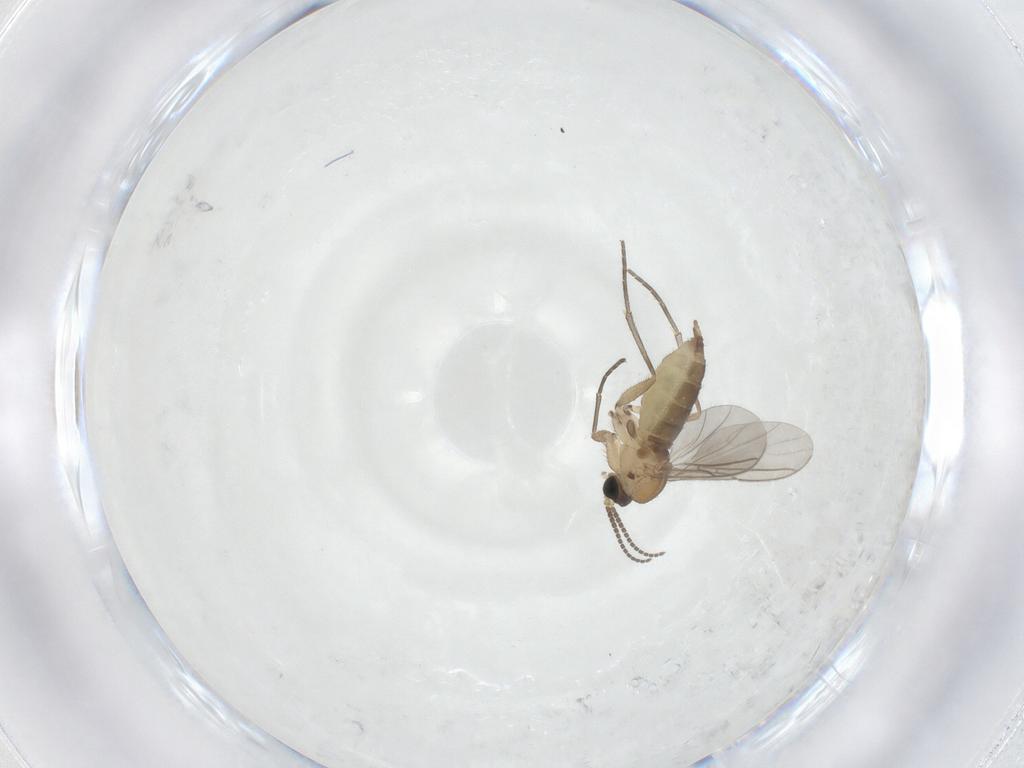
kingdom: Animalia
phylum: Arthropoda
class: Insecta
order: Diptera
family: Sciaridae
